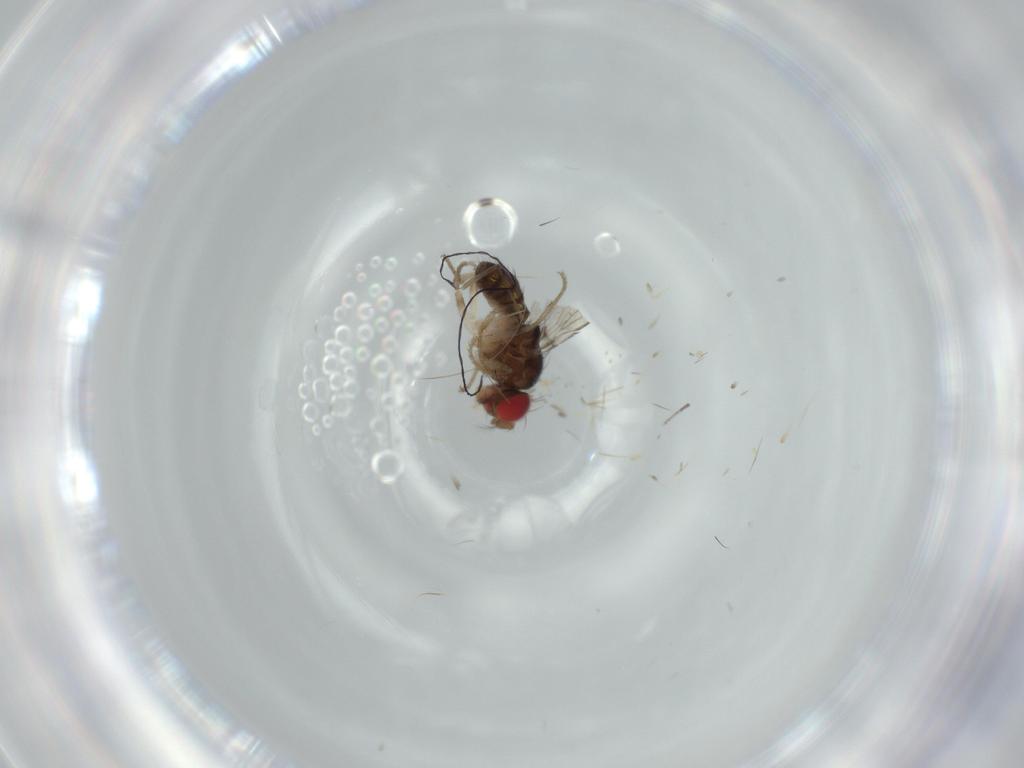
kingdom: Animalia
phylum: Arthropoda
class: Insecta
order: Diptera
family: Drosophilidae
